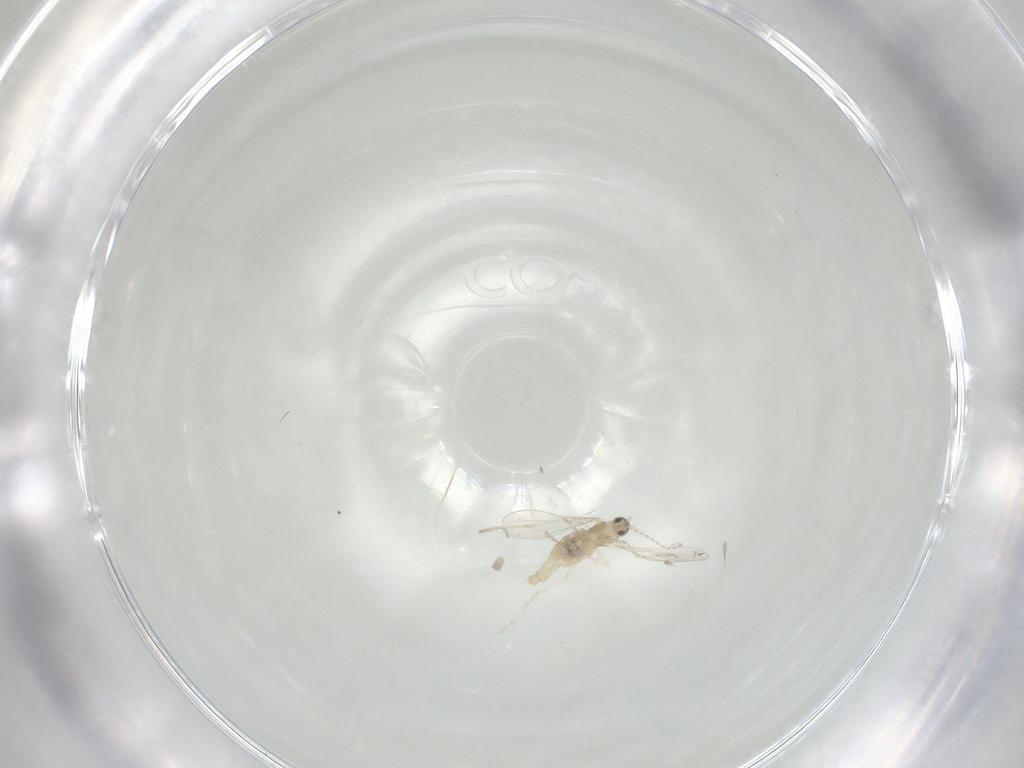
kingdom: Animalia
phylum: Arthropoda
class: Insecta
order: Diptera
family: Cecidomyiidae
